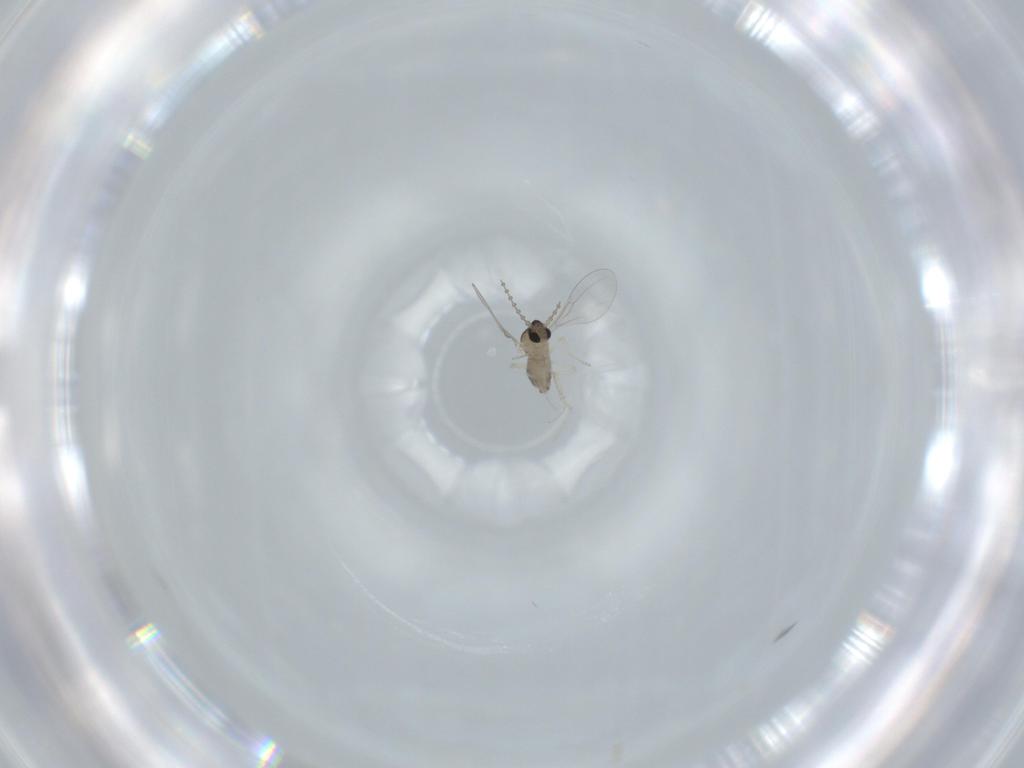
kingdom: Animalia
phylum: Arthropoda
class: Insecta
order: Diptera
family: Cecidomyiidae
